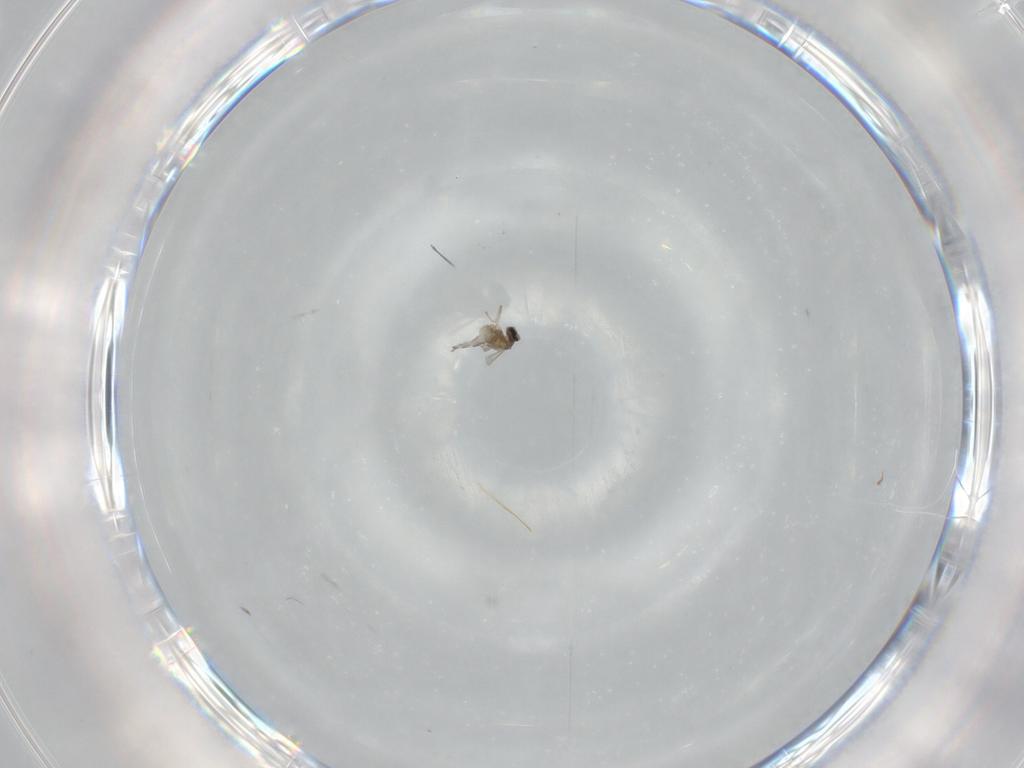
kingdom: Animalia
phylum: Arthropoda
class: Insecta
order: Diptera
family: Cecidomyiidae
